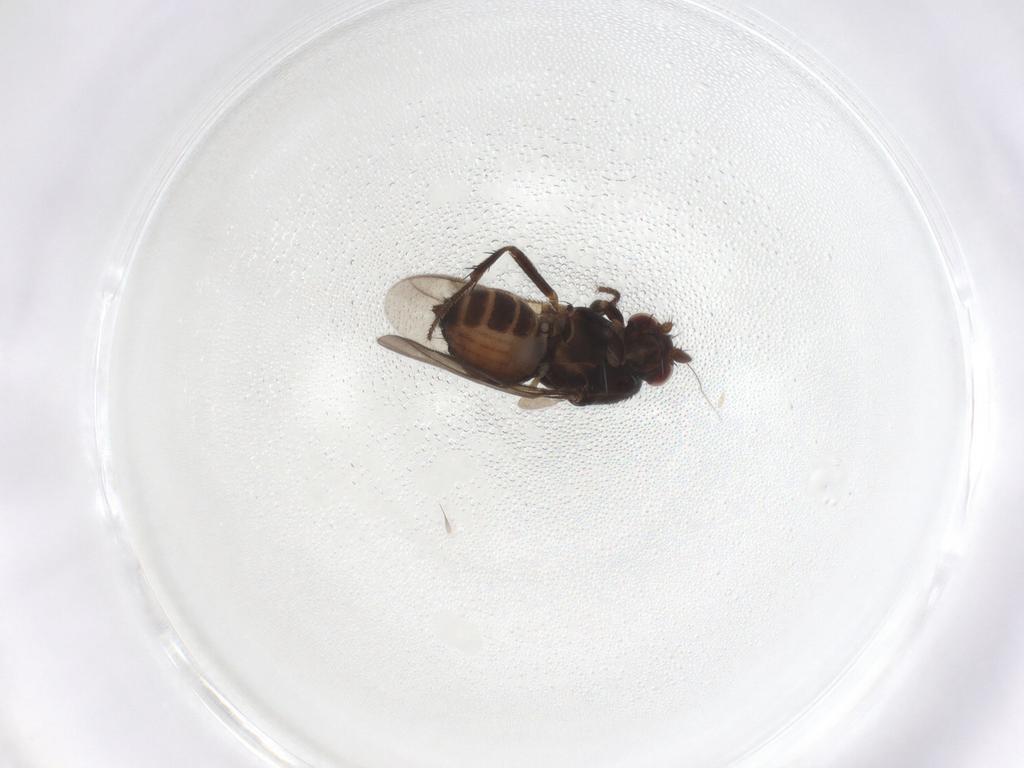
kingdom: Animalia
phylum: Arthropoda
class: Insecta
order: Diptera
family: Sphaeroceridae
